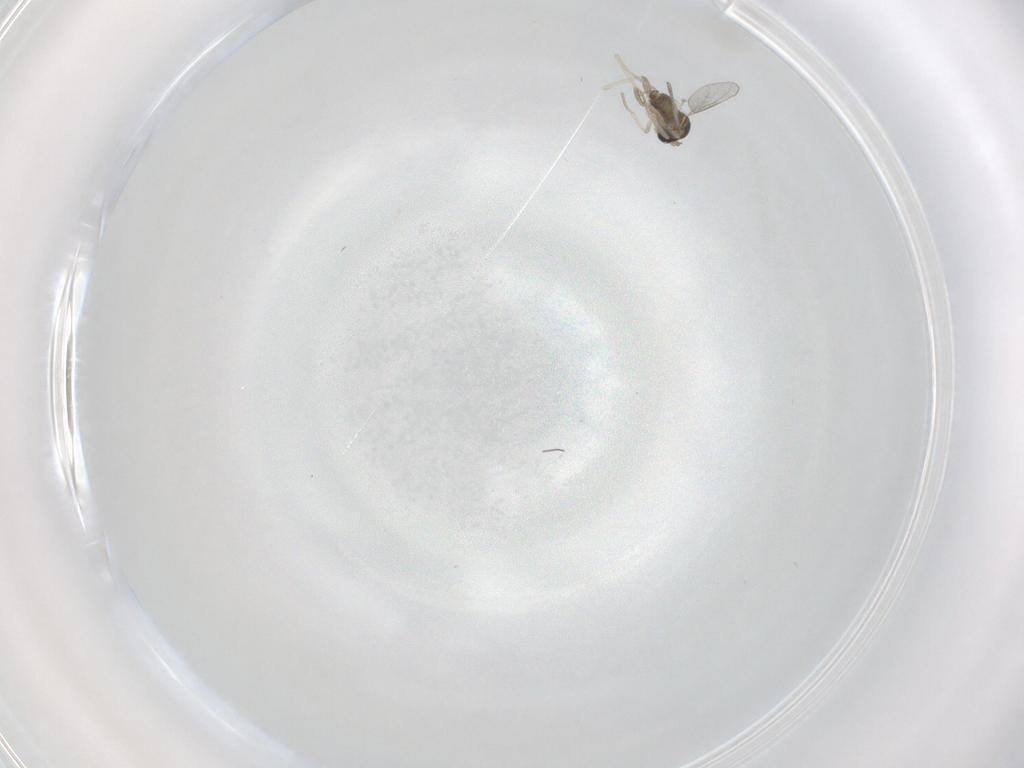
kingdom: Animalia
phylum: Arthropoda
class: Insecta
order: Diptera
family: Cecidomyiidae
